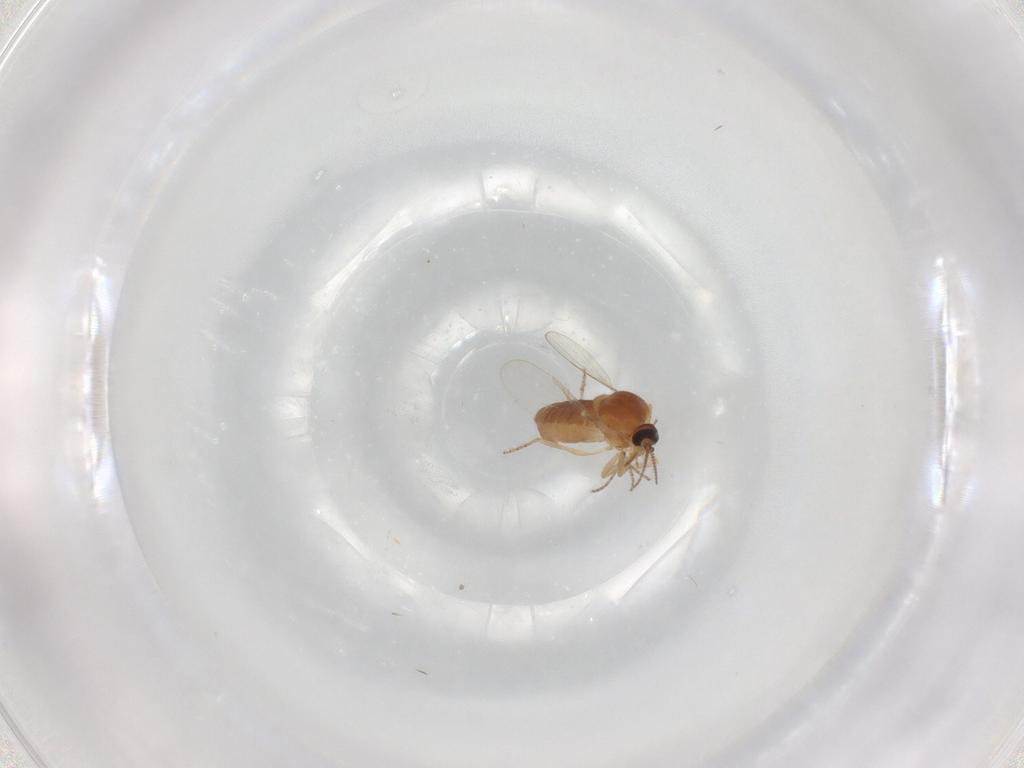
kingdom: Animalia
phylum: Arthropoda
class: Insecta
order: Diptera
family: Ceratopogonidae
